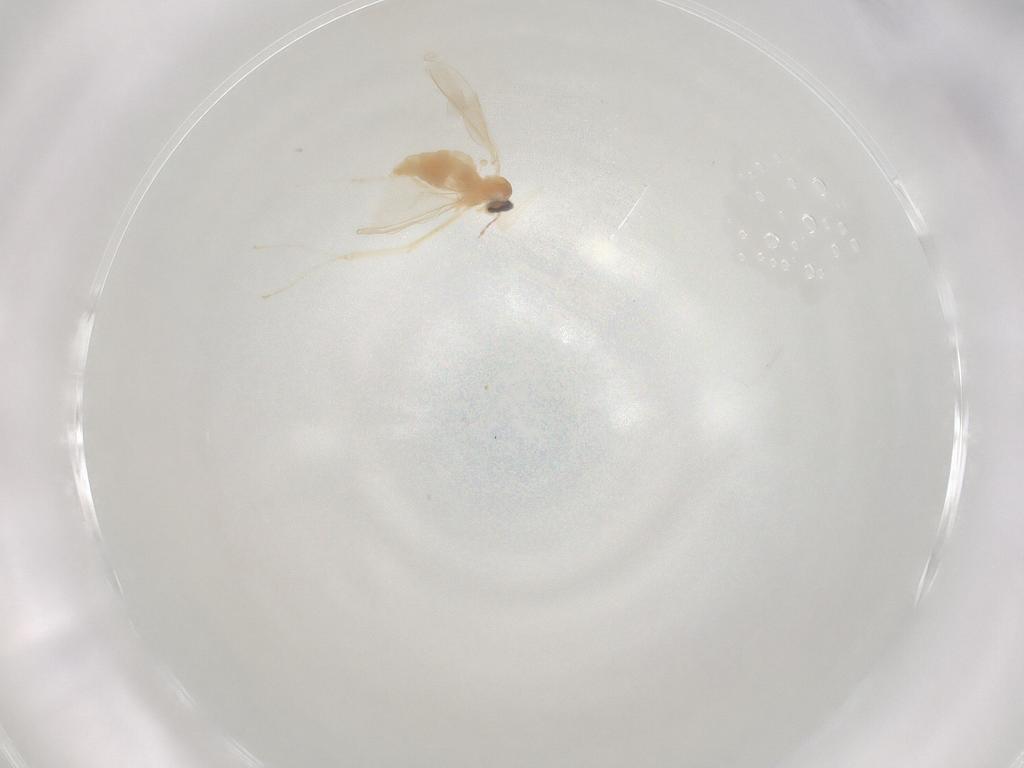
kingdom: Animalia
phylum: Arthropoda
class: Insecta
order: Diptera
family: Cecidomyiidae
